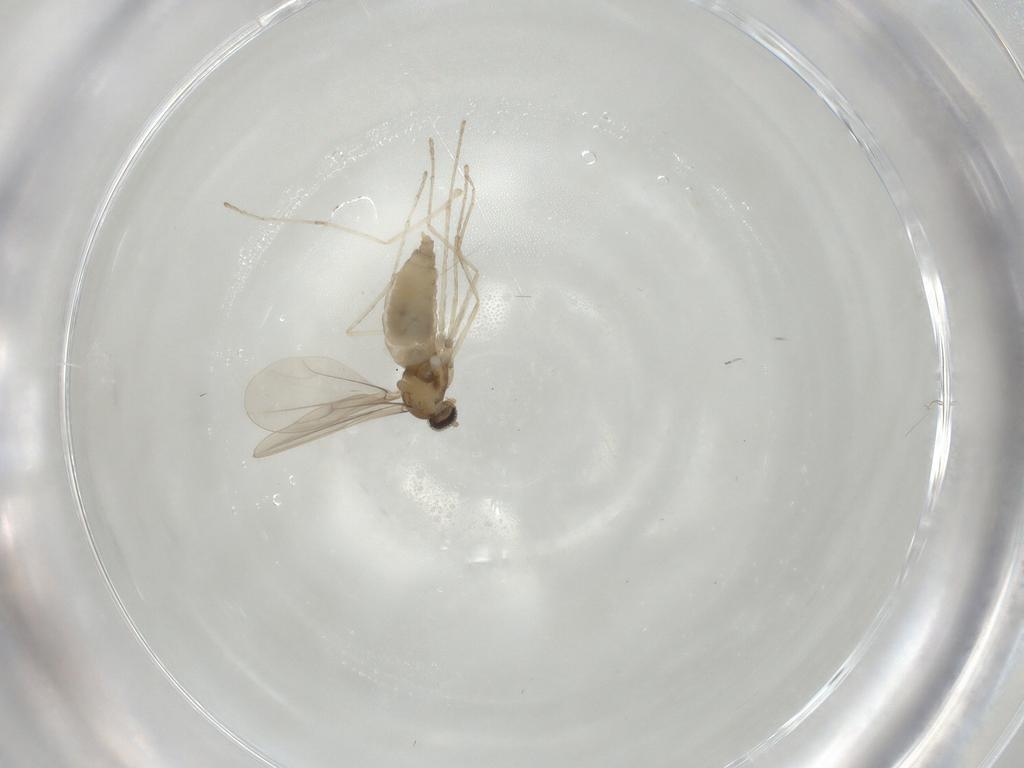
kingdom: Animalia
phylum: Arthropoda
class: Insecta
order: Diptera
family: Cecidomyiidae
